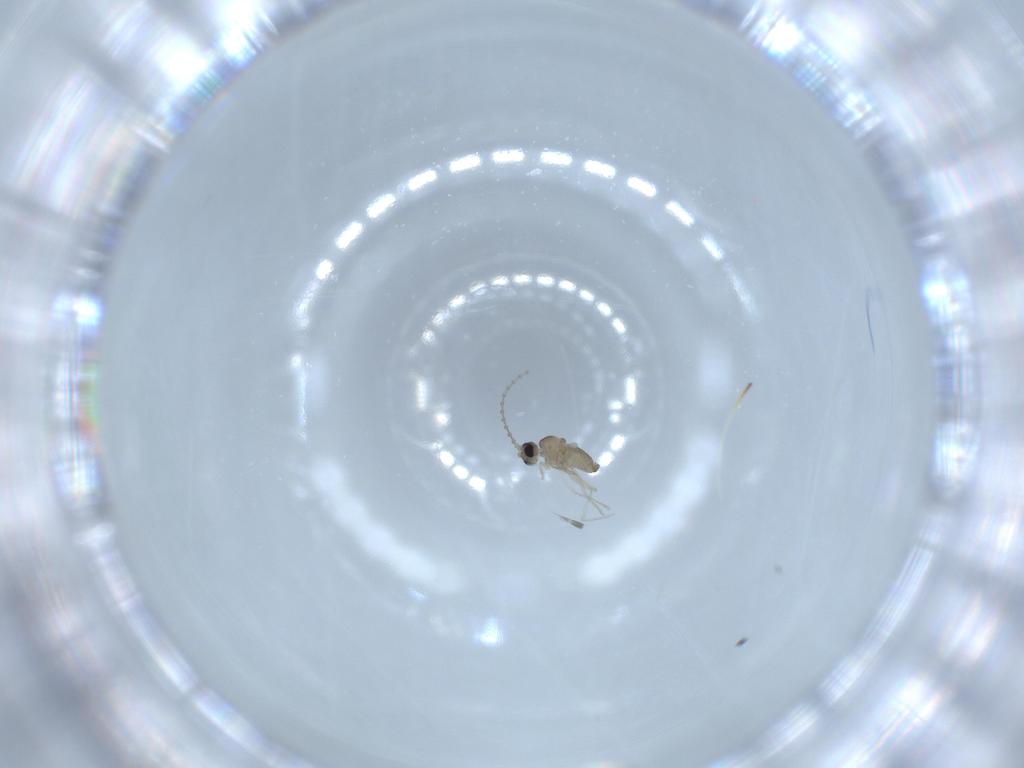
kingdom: Animalia
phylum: Arthropoda
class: Insecta
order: Diptera
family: Cecidomyiidae
